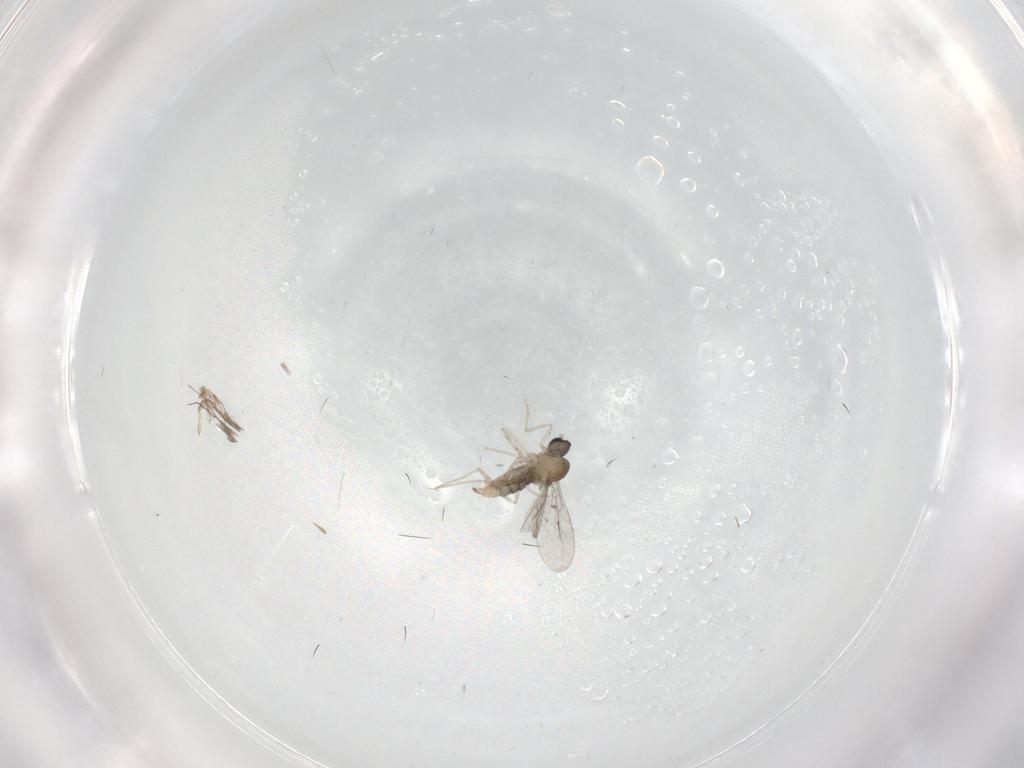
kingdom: Animalia
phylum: Arthropoda
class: Insecta
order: Diptera
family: Cecidomyiidae
